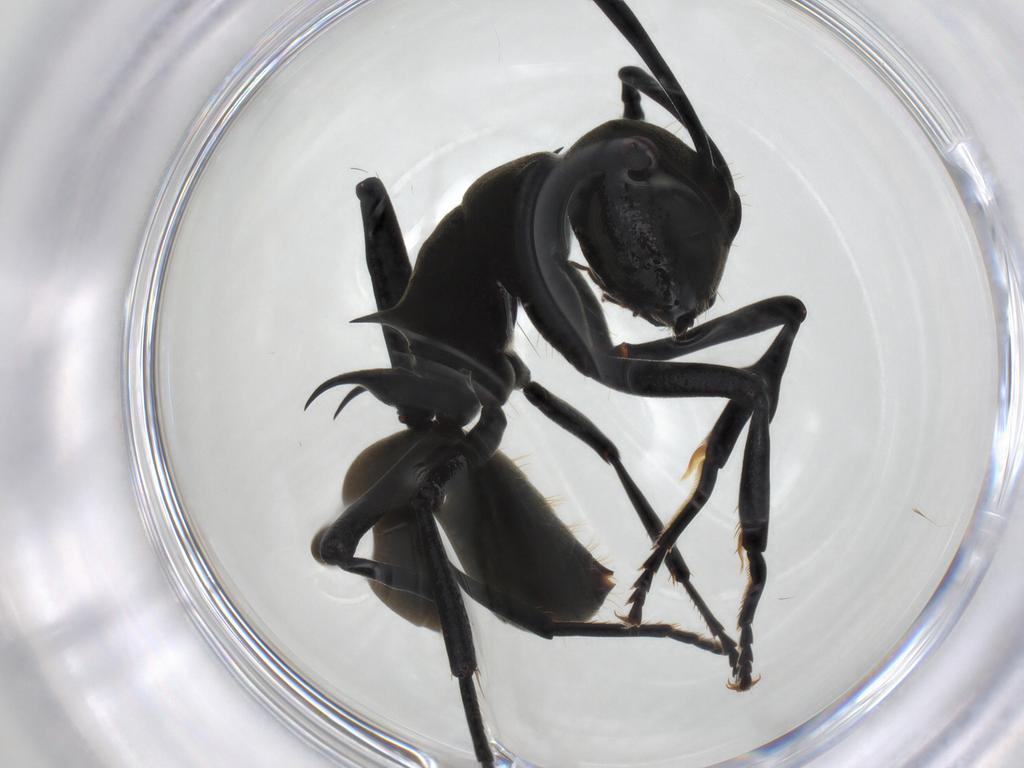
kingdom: Animalia
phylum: Arthropoda
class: Insecta
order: Hymenoptera
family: Formicidae
